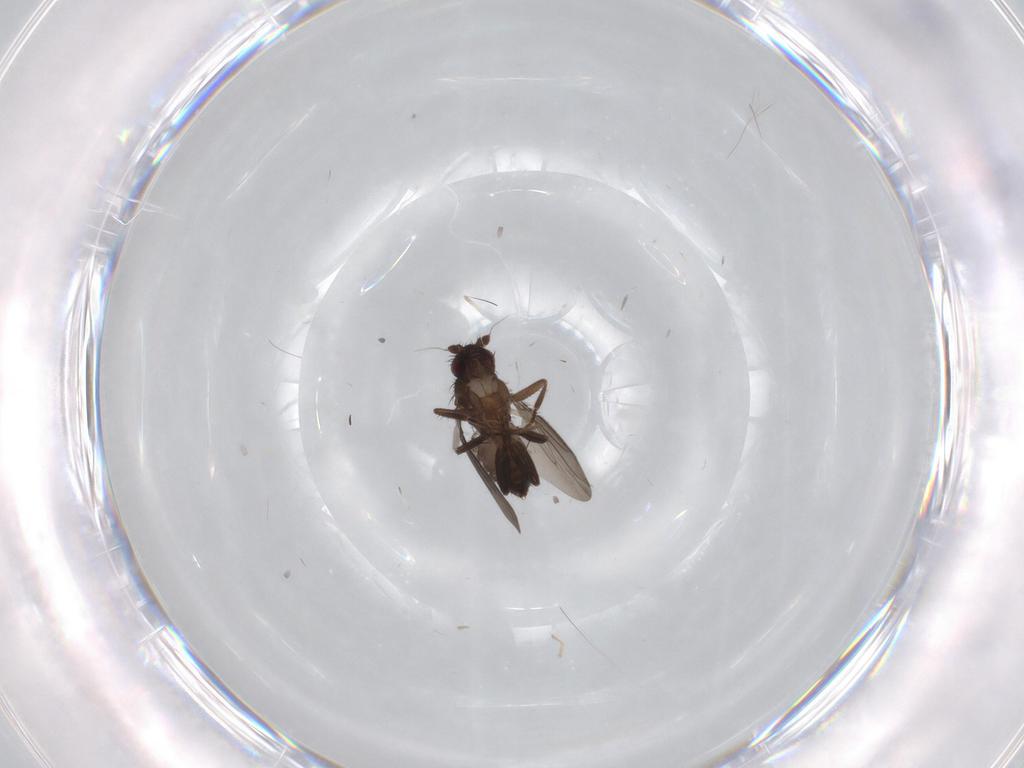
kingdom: Animalia
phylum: Arthropoda
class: Insecta
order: Diptera
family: Sphaeroceridae
